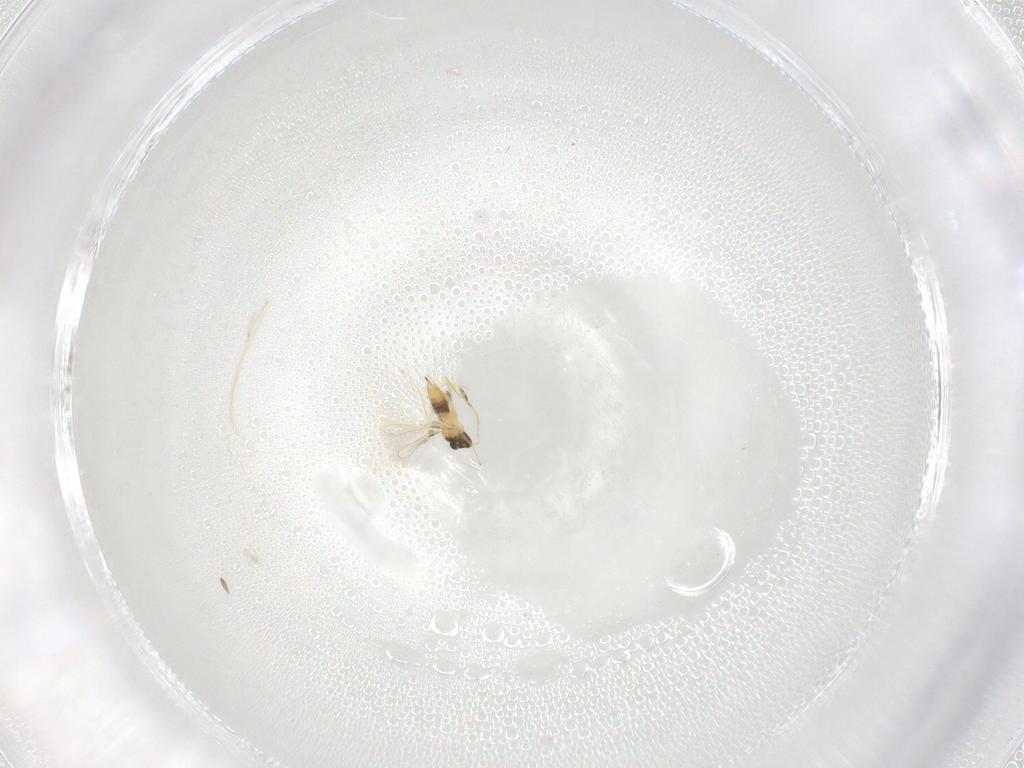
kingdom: Animalia
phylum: Arthropoda
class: Insecta
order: Hymenoptera
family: Mymaridae
